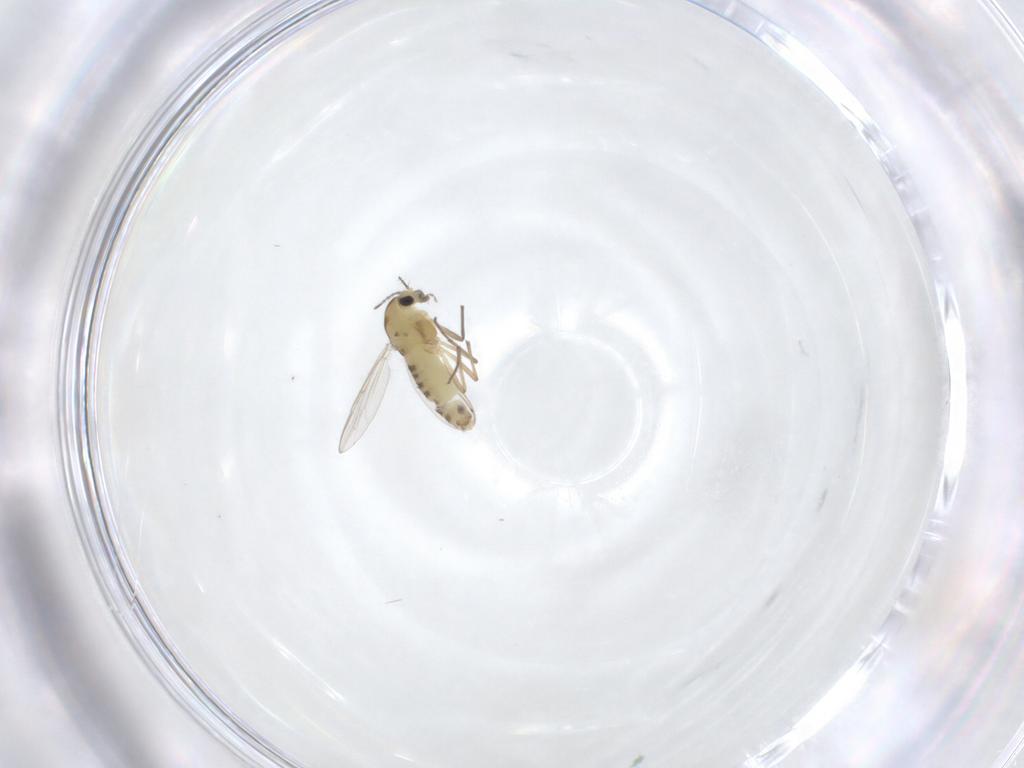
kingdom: Animalia
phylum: Arthropoda
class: Insecta
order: Diptera
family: Chironomidae
